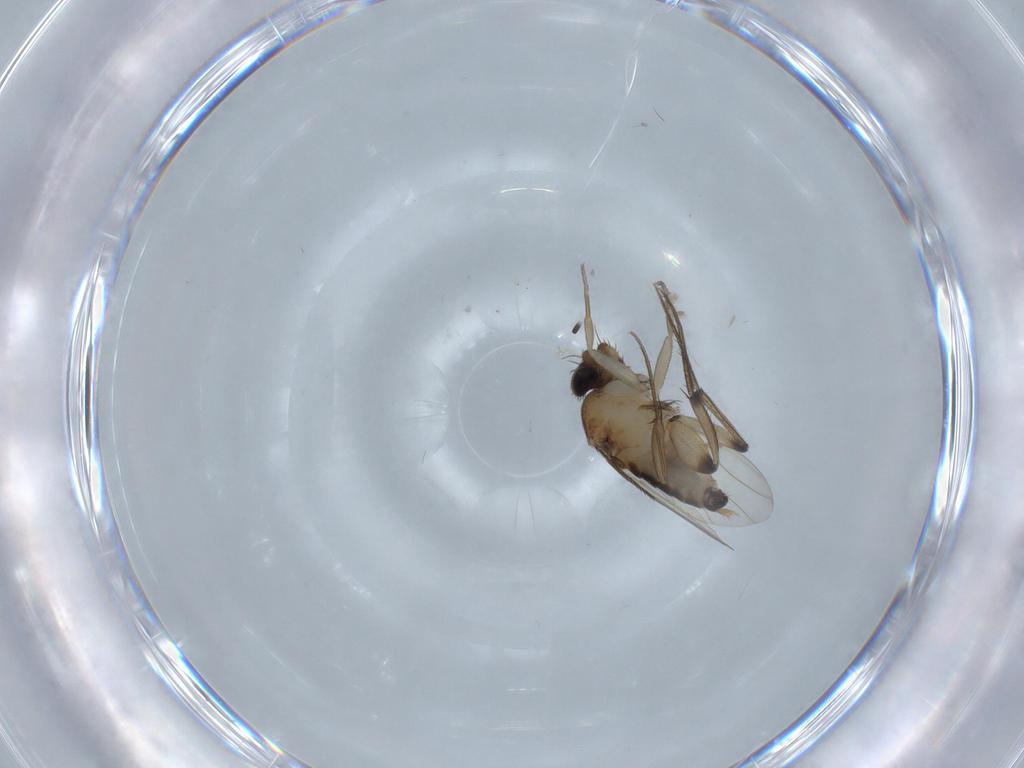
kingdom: Animalia
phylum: Arthropoda
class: Insecta
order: Diptera
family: Phoridae
